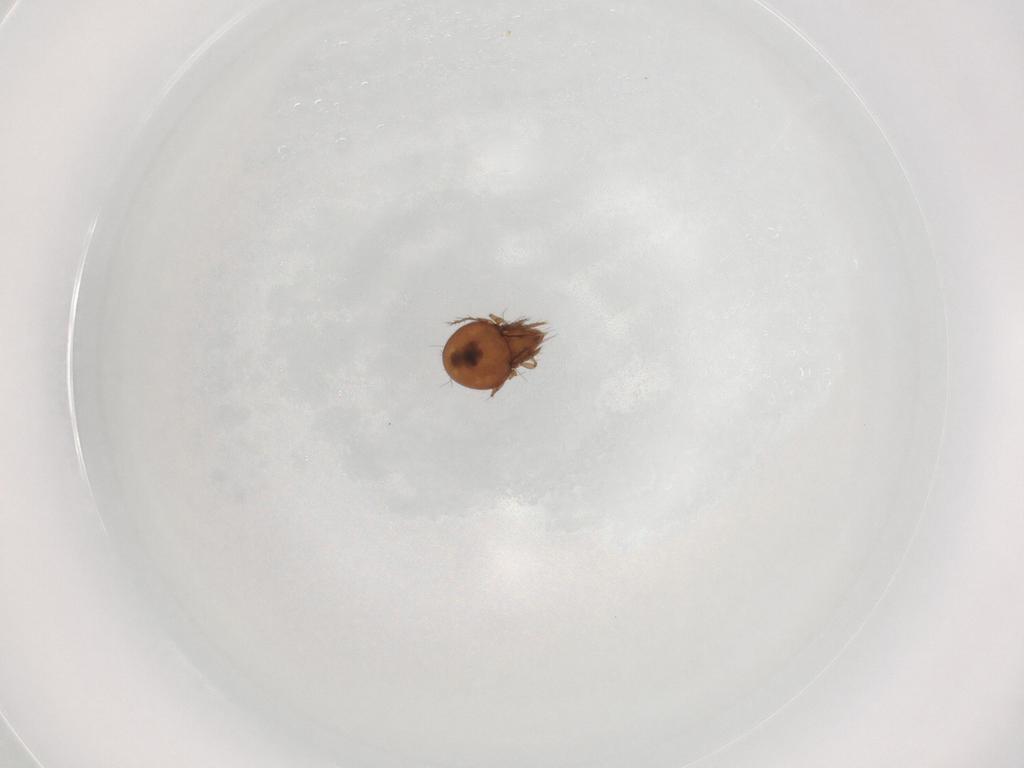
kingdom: Animalia
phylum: Arthropoda
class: Arachnida
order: Sarcoptiformes
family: Ceratoppiidae
